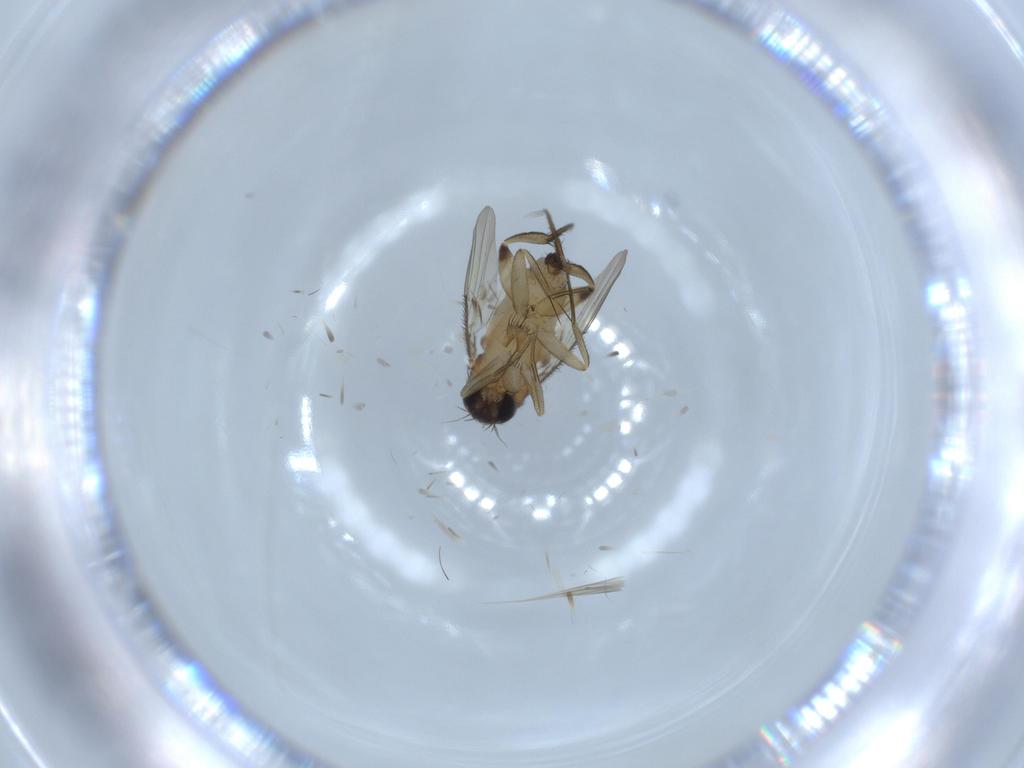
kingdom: Animalia
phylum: Arthropoda
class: Insecta
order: Diptera
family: Phoridae
